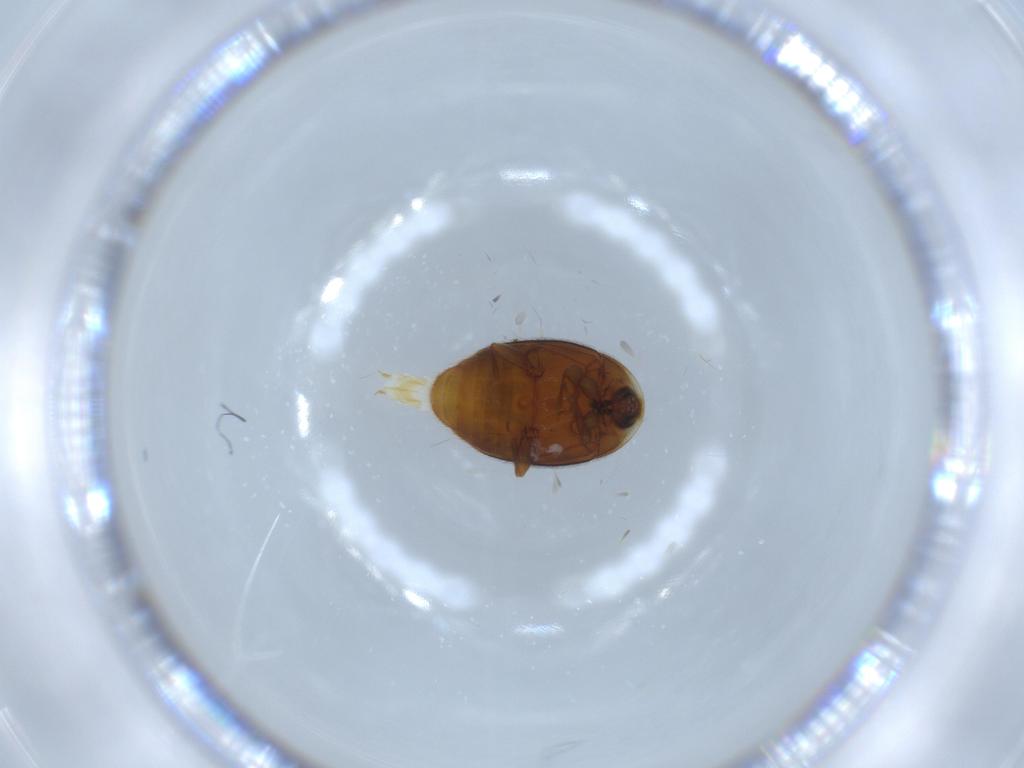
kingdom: Animalia
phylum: Arthropoda
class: Insecta
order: Coleoptera
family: Corylophidae
